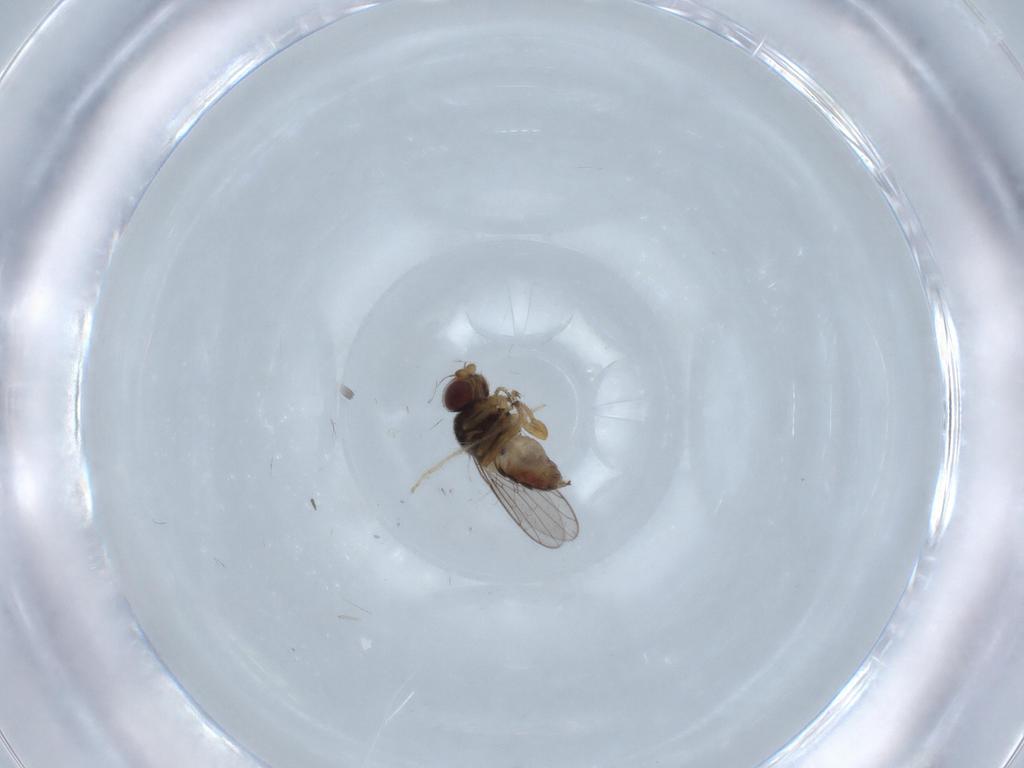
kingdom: Animalia
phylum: Arthropoda
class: Insecta
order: Diptera
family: Chloropidae
